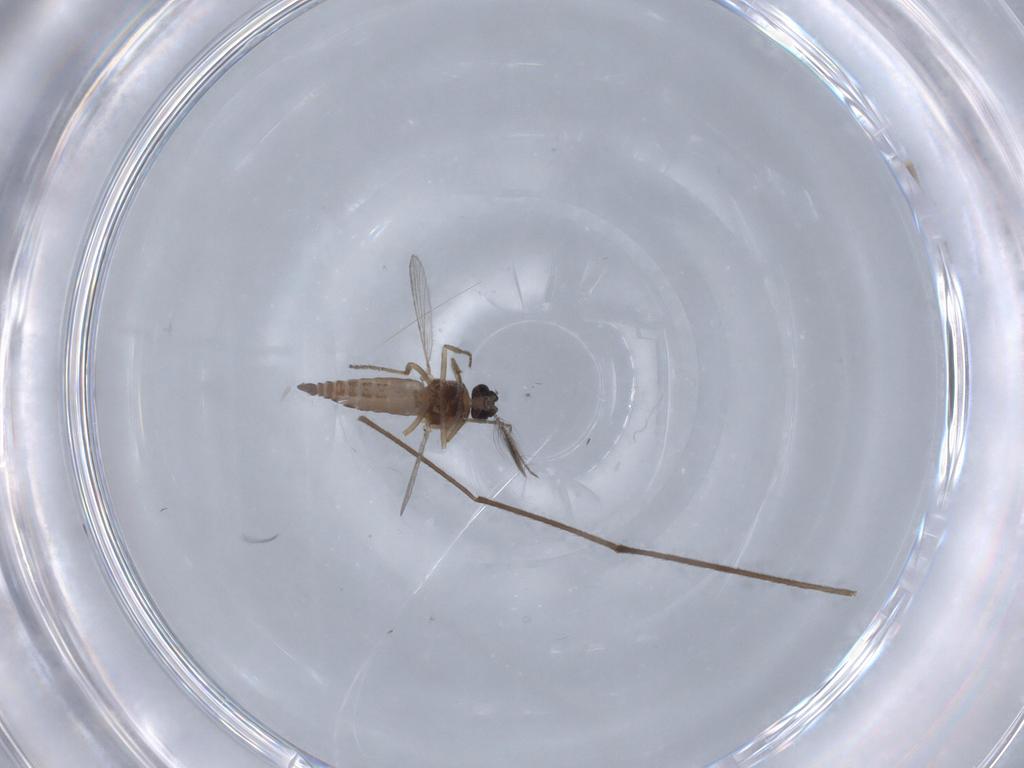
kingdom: Animalia
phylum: Arthropoda
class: Insecta
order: Diptera
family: Chironomidae
